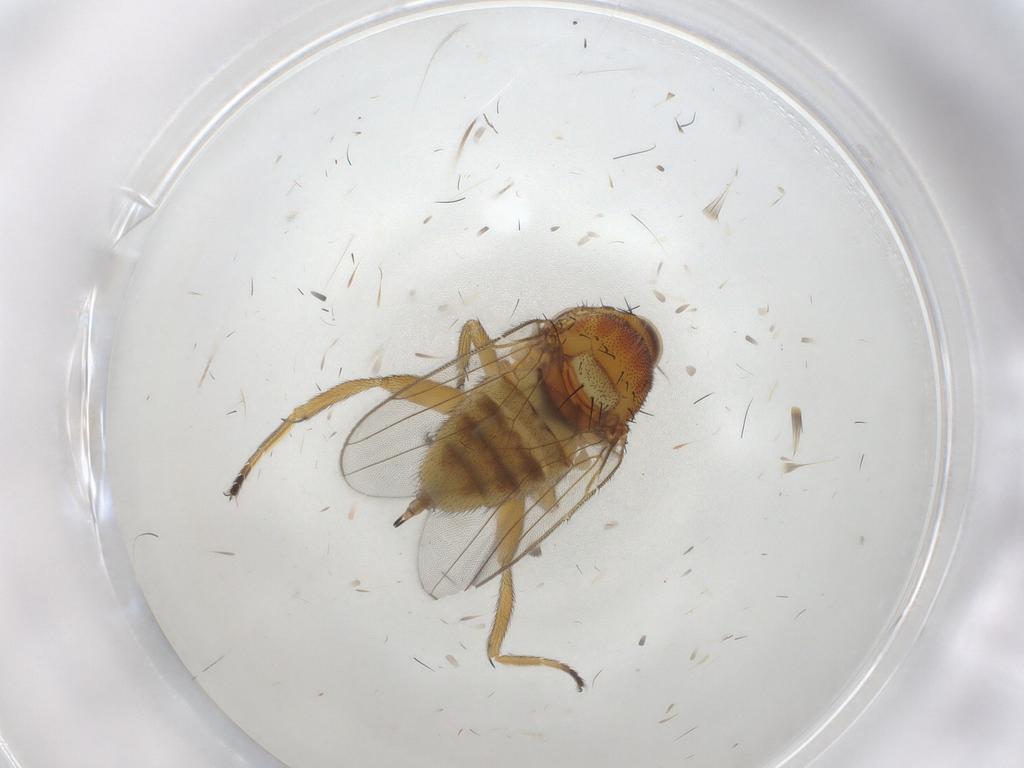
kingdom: Animalia
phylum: Arthropoda
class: Insecta
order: Diptera
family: Chloropidae
